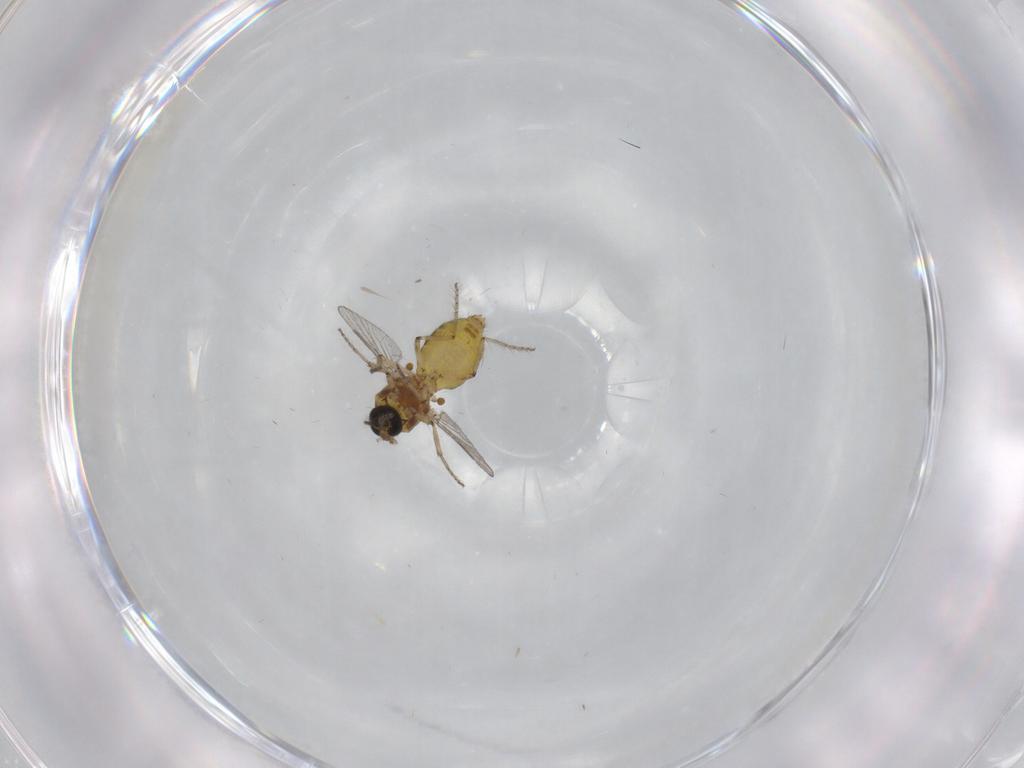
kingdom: Animalia
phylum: Arthropoda
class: Insecta
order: Diptera
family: Ceratopogonidae
